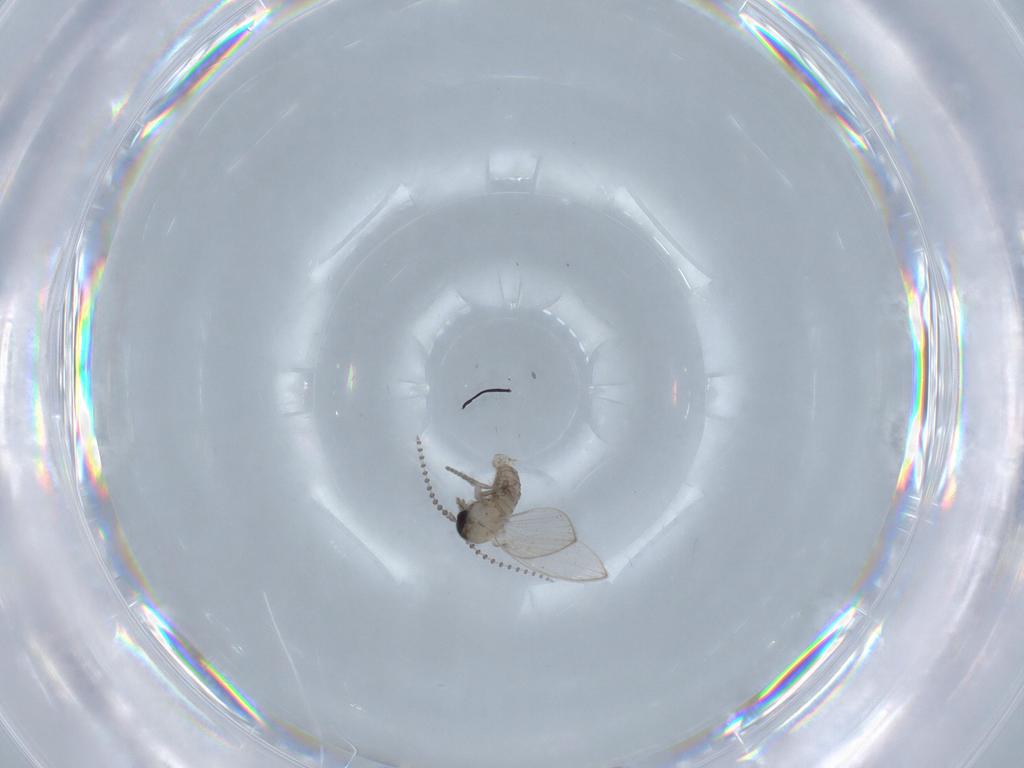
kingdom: Animalia
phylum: Arthropoda
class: Insecta
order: Diptera
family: Psychodidae
